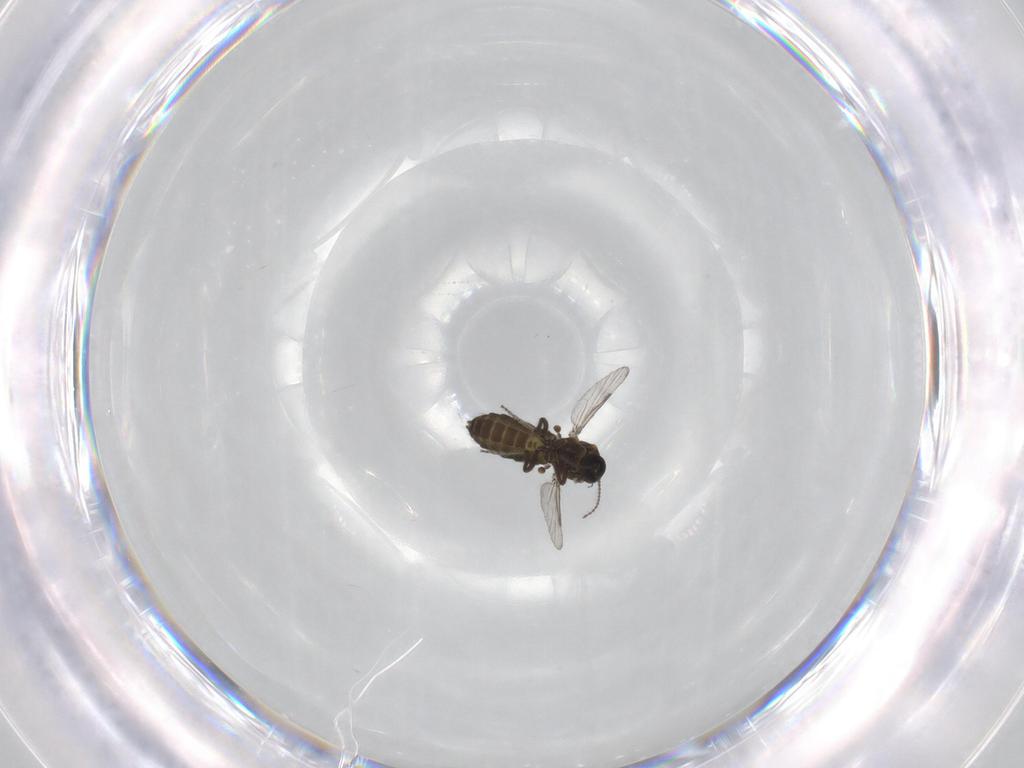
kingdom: Animalia
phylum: Arthropoda
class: Insecta
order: Diptera
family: Ceratopogonidae
